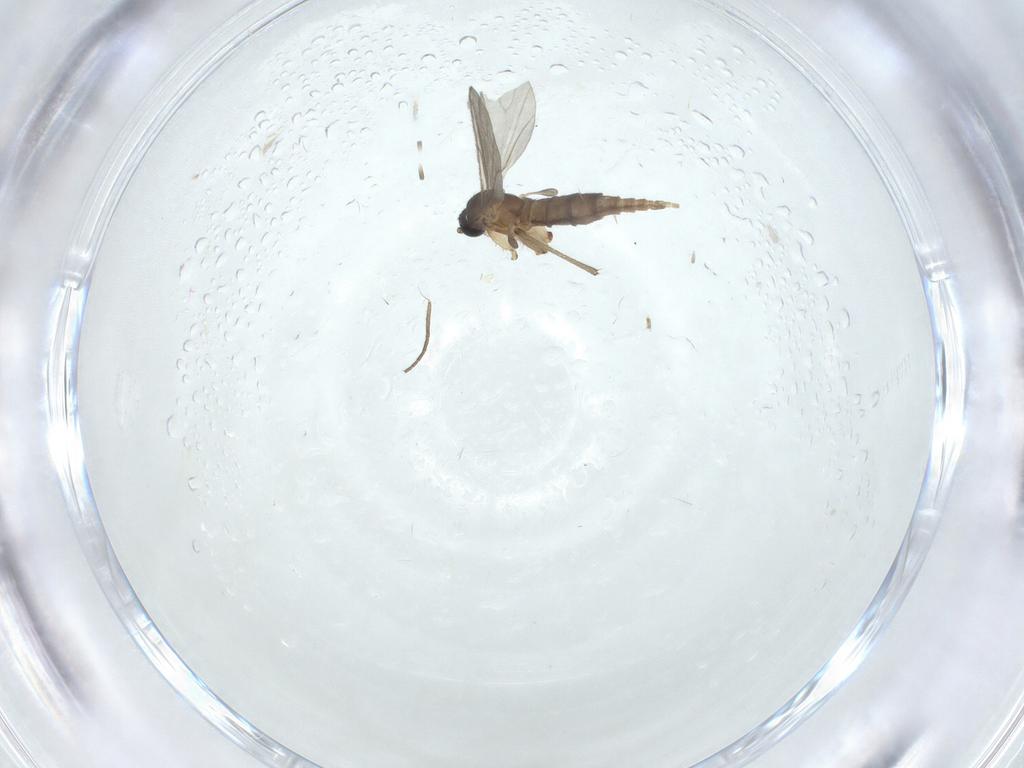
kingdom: Animalia
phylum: Arthropoda
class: Insecta
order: Diptera
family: Sciaridae
